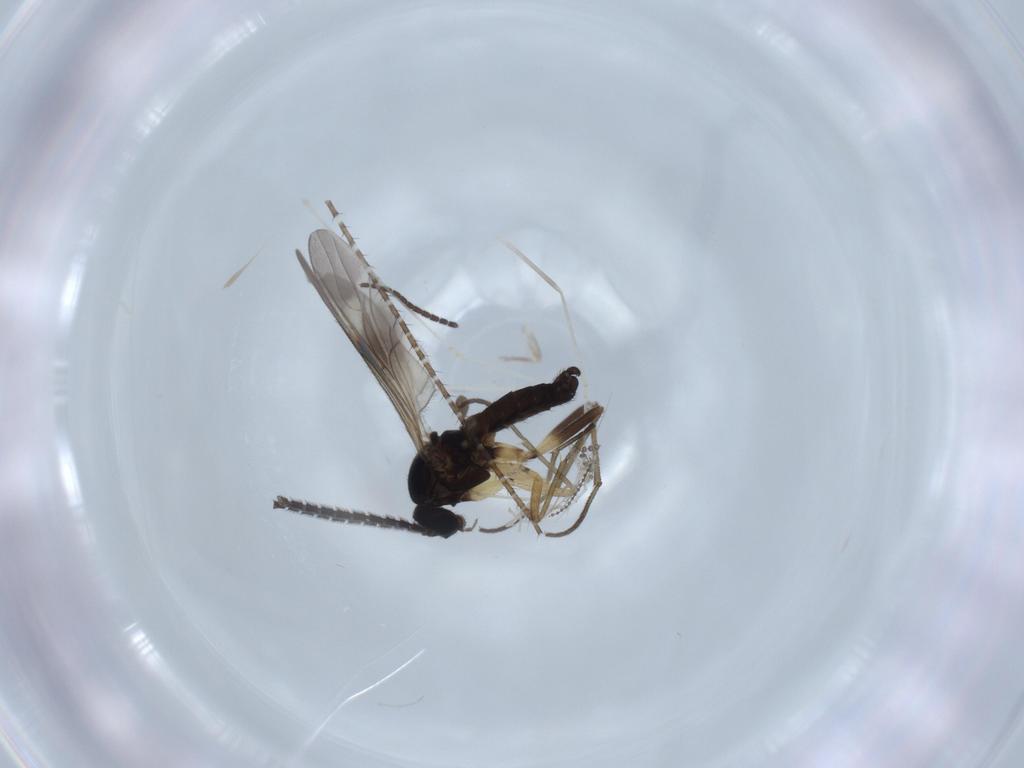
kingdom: Animalia
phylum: Arthropoda
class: Insecta
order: Diptera
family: Sciaridae
